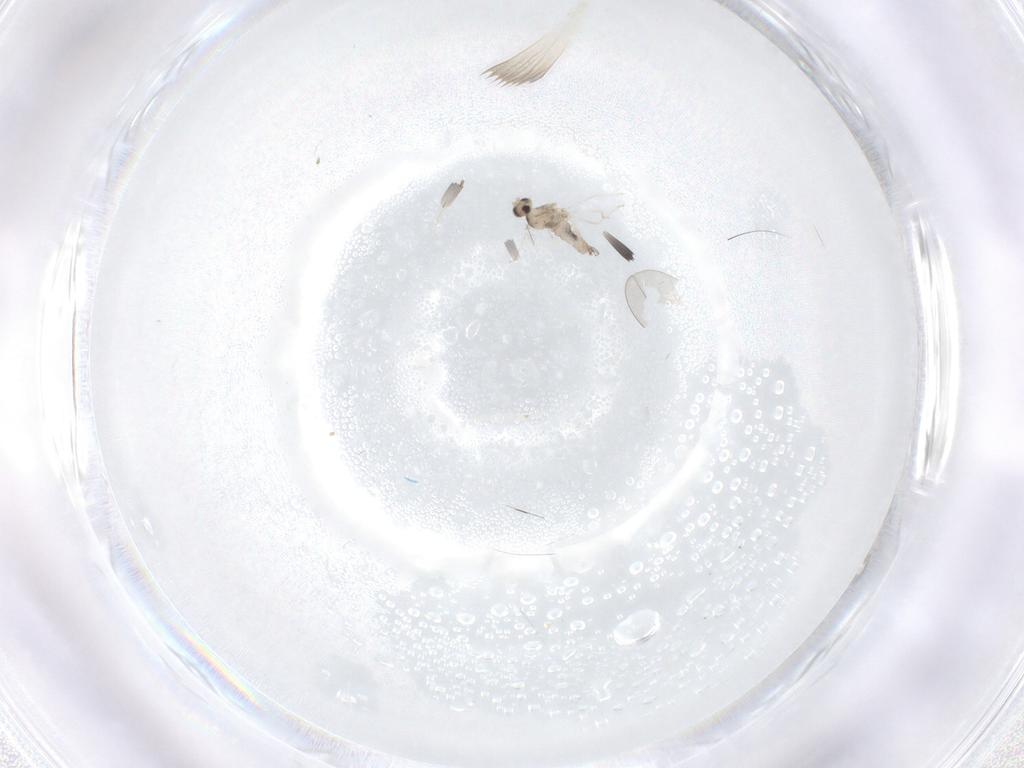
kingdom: Animalia
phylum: Arthropoda
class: Insecta
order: Diptera
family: Cecidomyiidae
